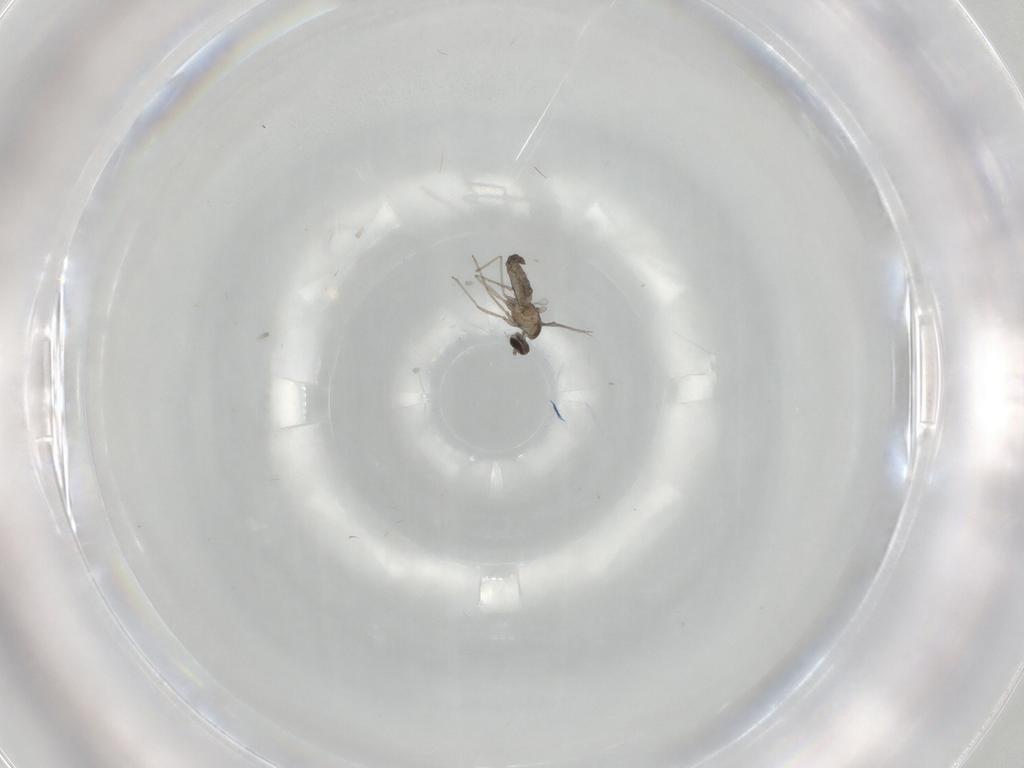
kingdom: Animalia
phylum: Arthropoda
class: Insecta
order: Diptera
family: Cecidomyiidae
